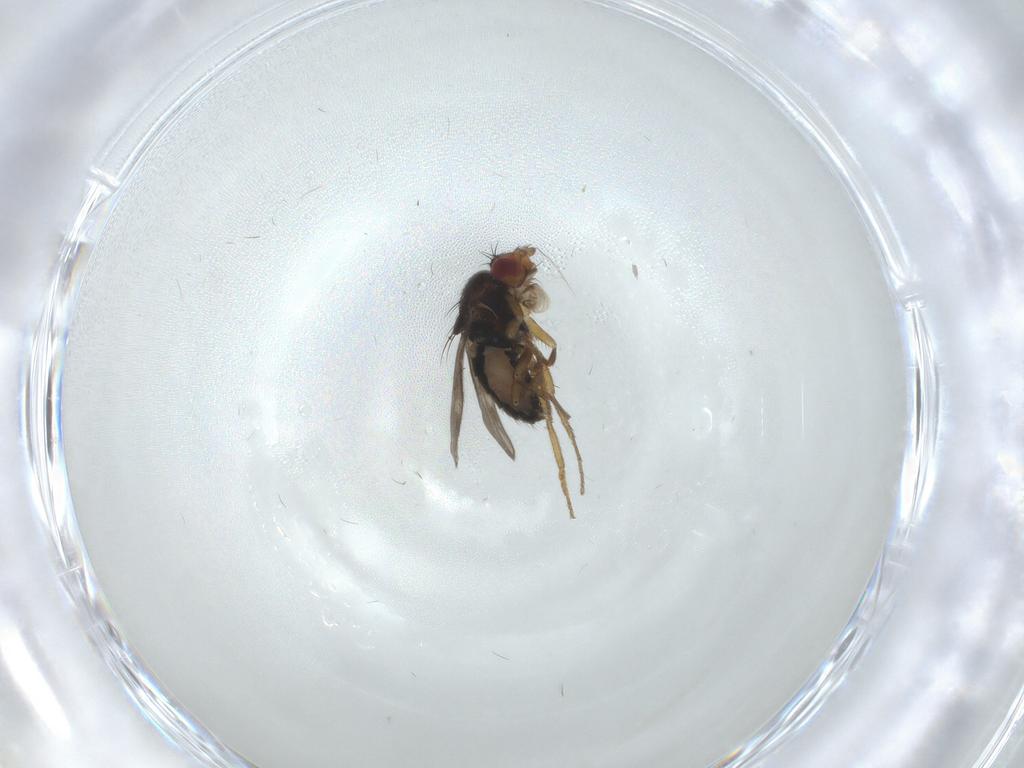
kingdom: Animalia
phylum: Arthropoda
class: Insecta
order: Diptera
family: Sphaeroceridae
